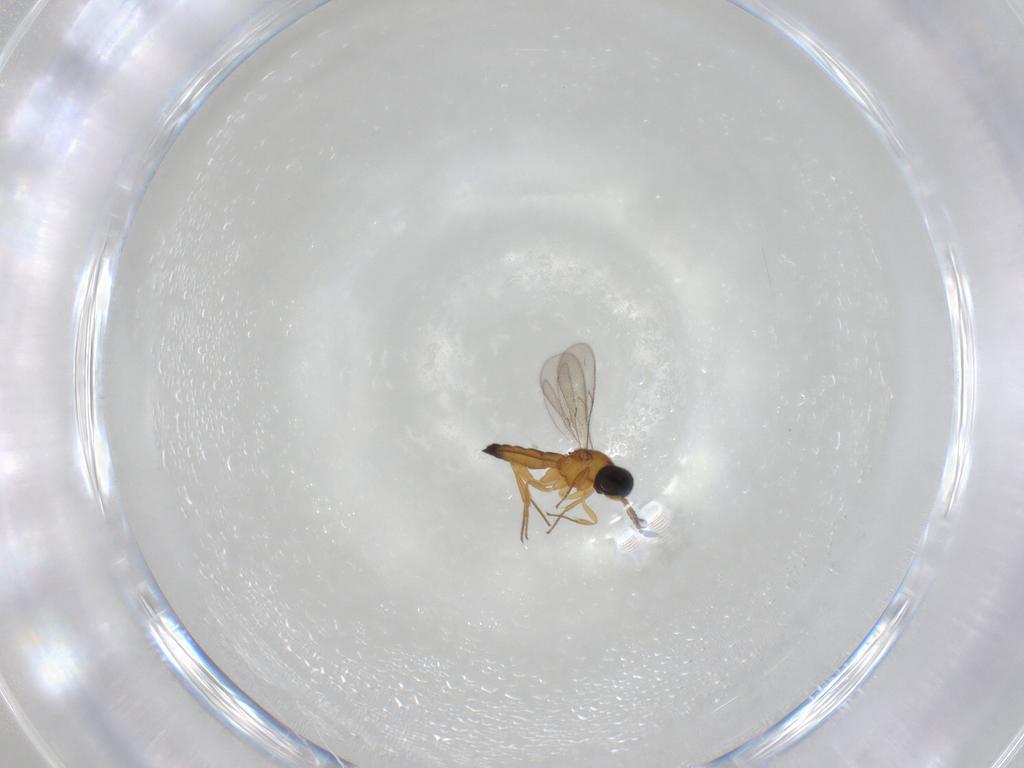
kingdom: Animalia
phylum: Arthropoda
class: Insecta
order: Hymenoptera
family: Scelionidae
